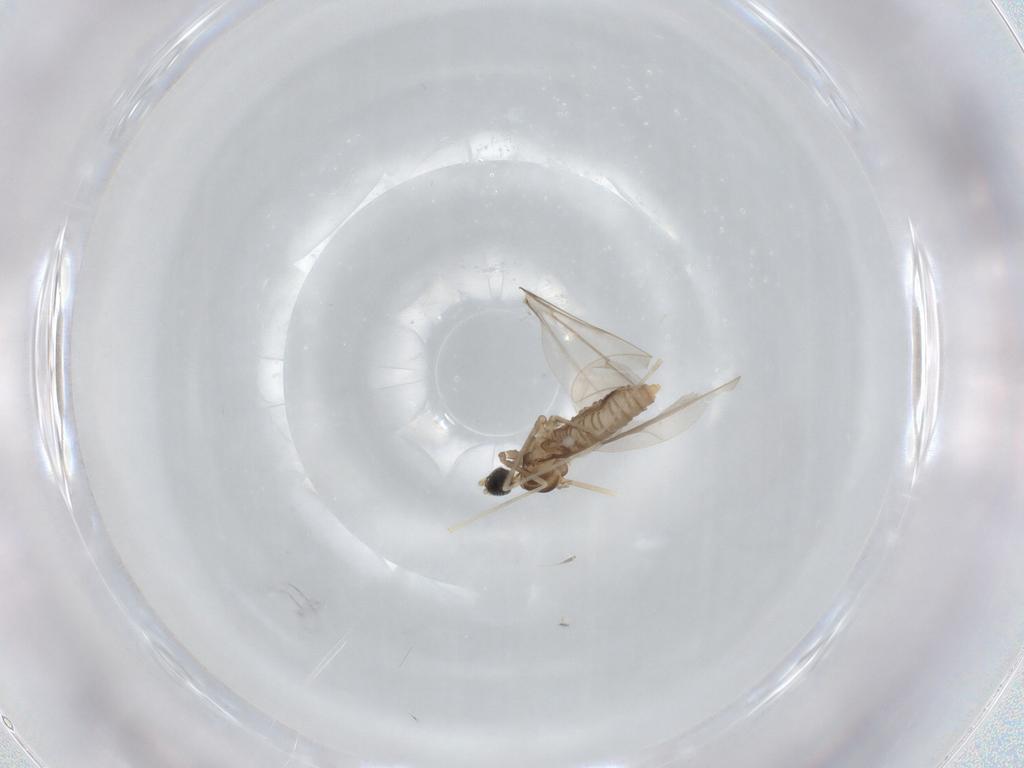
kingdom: Animalia
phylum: Arthropoda
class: Insecta
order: Diptera
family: Cecidomyiidae
